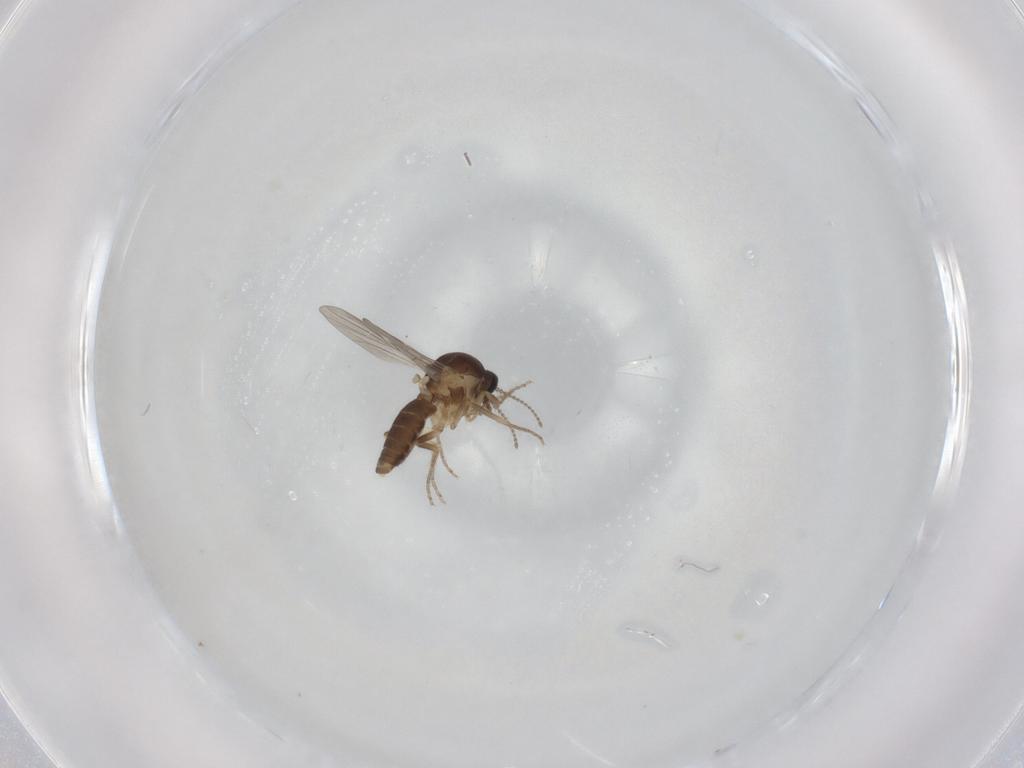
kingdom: Animalia
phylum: Arthropoda
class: Insecta
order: Diptera
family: Ceratopogonidae
